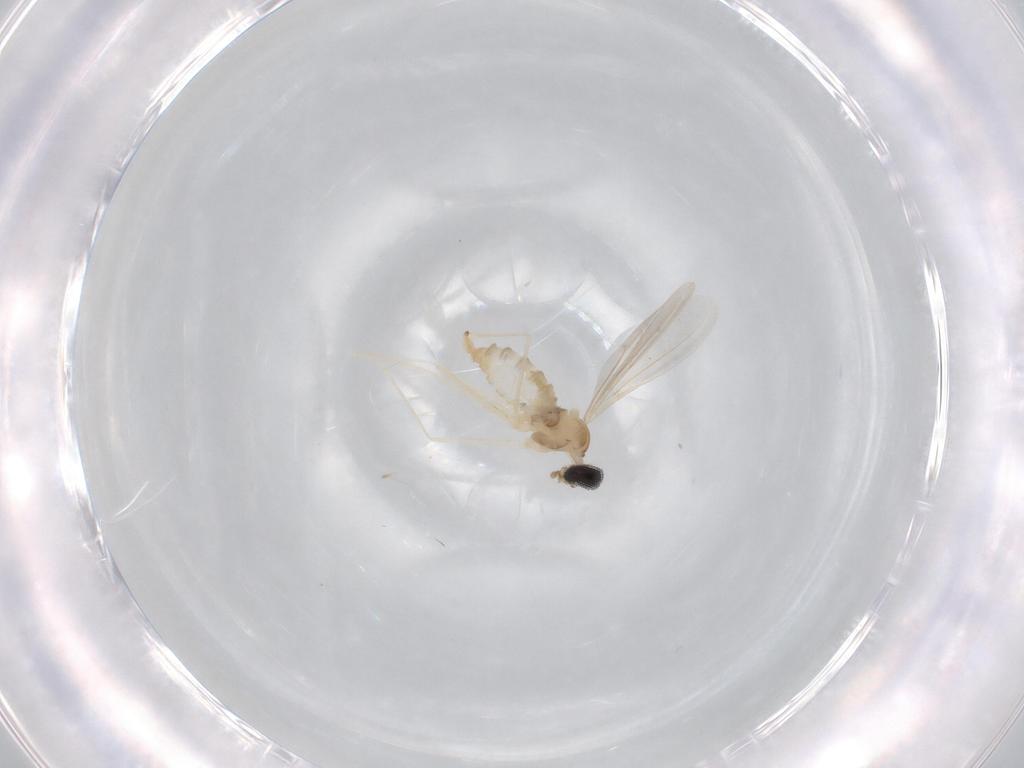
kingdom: Animalia
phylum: Arthropoda
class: Insecta
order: Diptera
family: Cecidomyiidae
